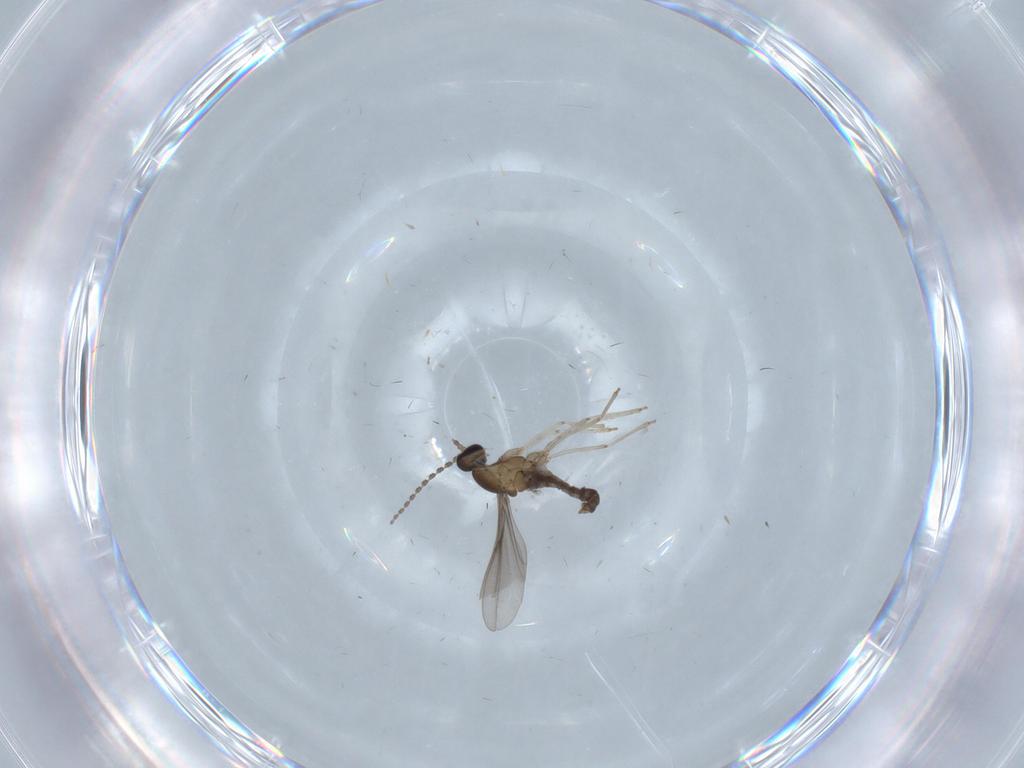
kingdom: Animalia
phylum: Arthropoda
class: Insecta
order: Diptera
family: Cecidomyiidae
